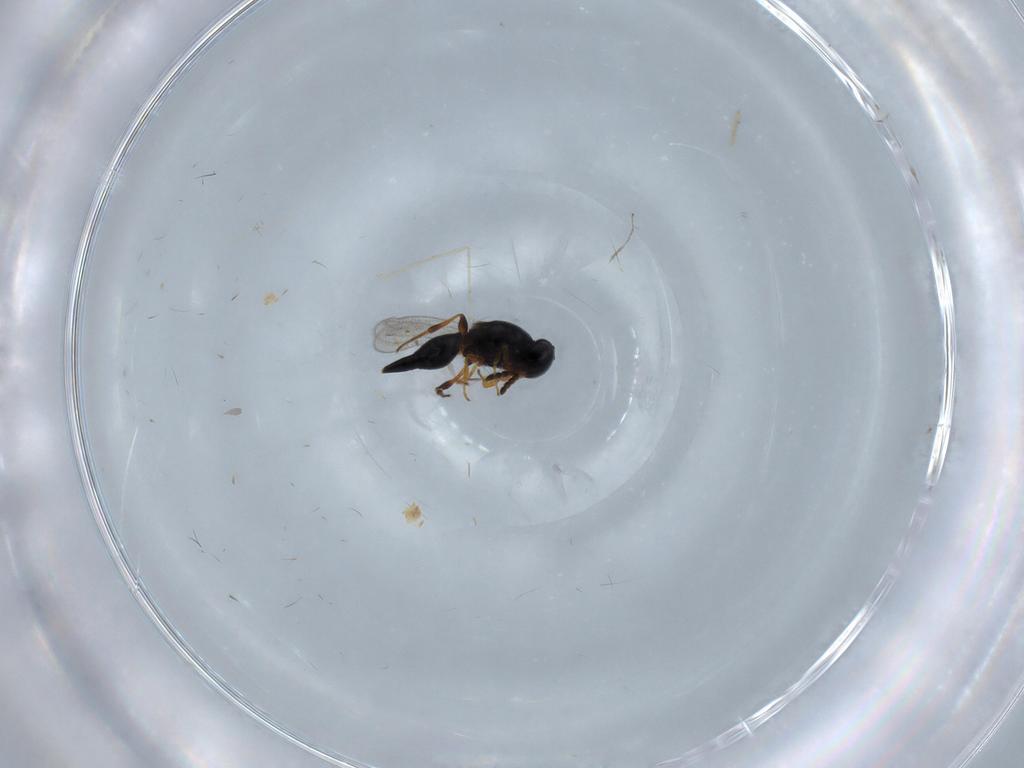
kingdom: Animalia
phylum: Arthropoda
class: Insecta
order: Hymenoptera
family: Platygastridae
